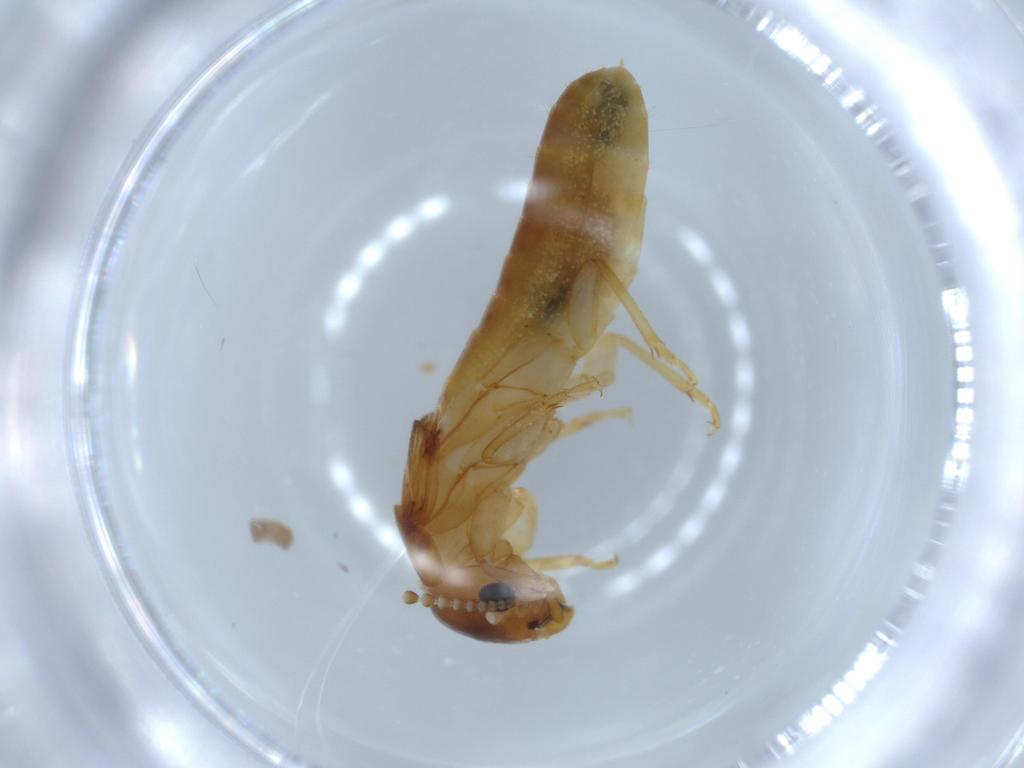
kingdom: Animalia
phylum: Arthropoda
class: Insecta
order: Blattodea
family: Kalotermitidae
